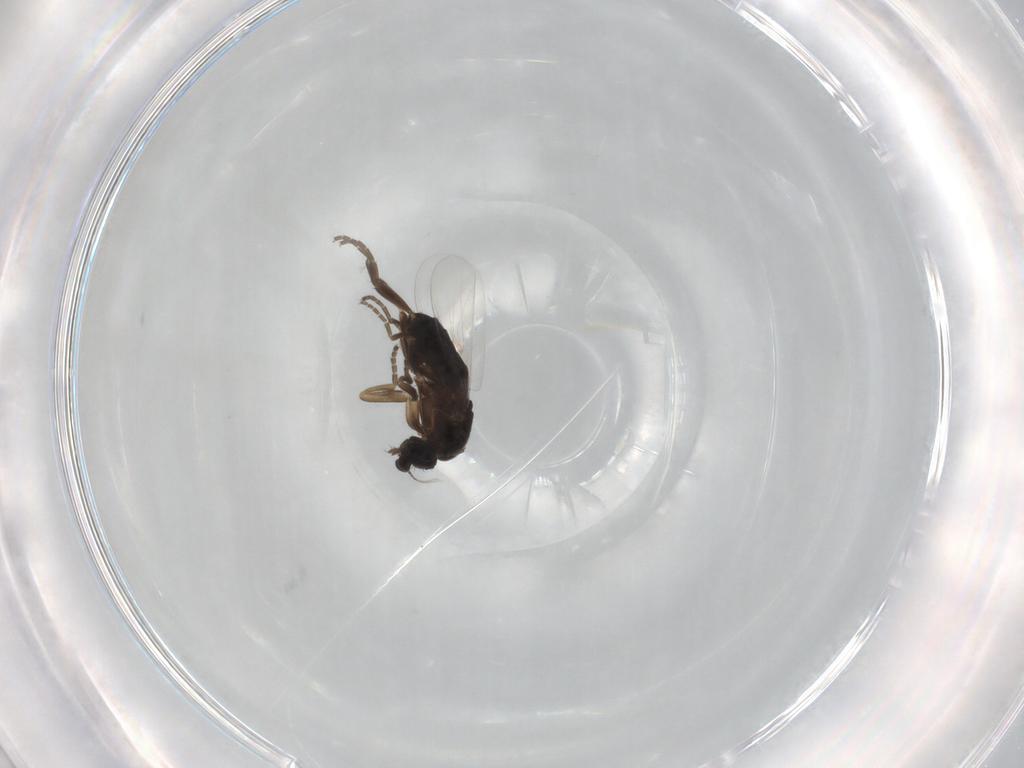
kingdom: Animalia
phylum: Arthropoda
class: Insecta
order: Diptera
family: Phoridae
